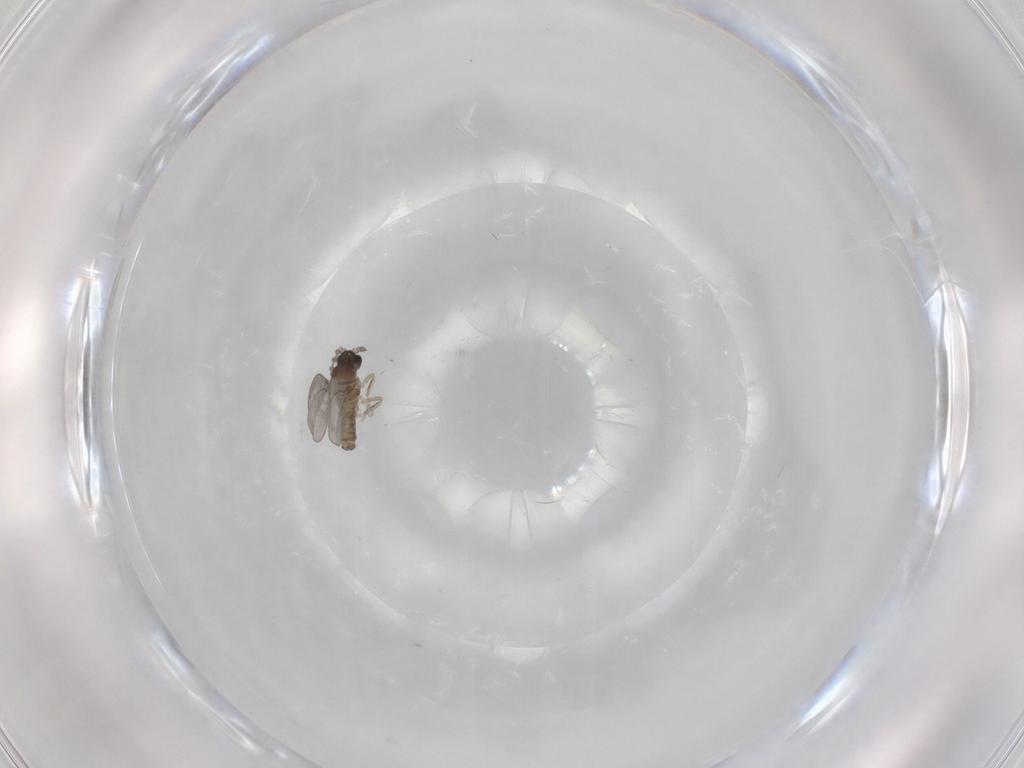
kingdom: Animalia
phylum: Arthropoda
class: Insecta
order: Diptera
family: Cecidomyiidae
